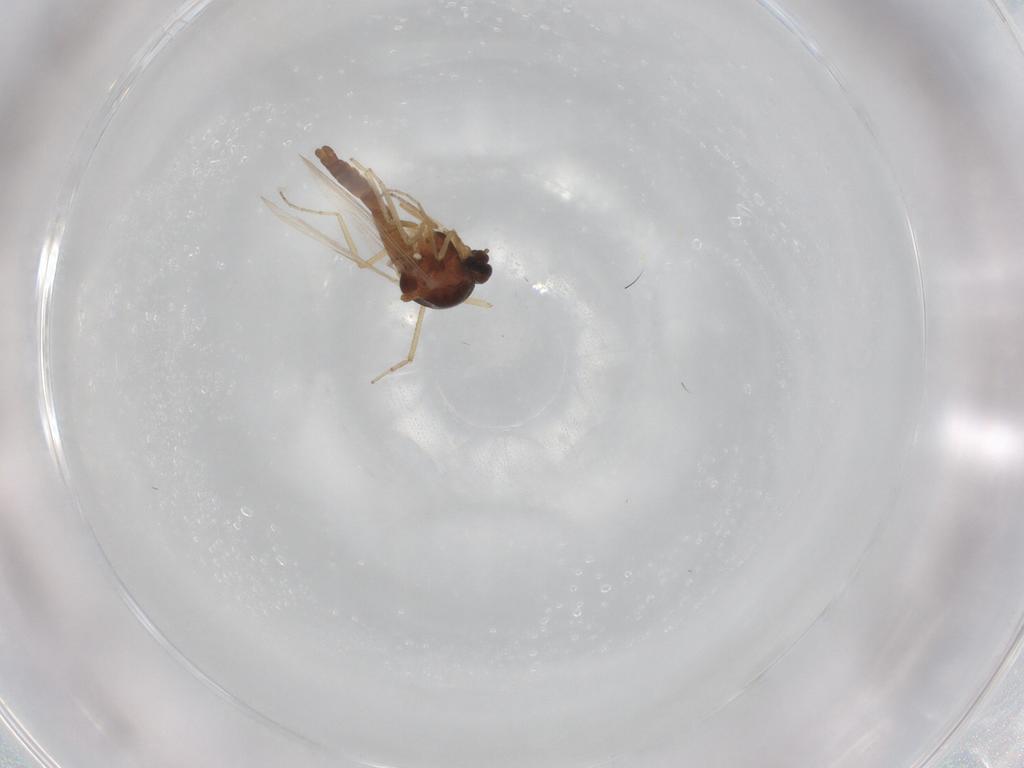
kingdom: Animalia
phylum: Arthropoda
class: Insecta
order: Diptera
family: Ceratopogonidae
